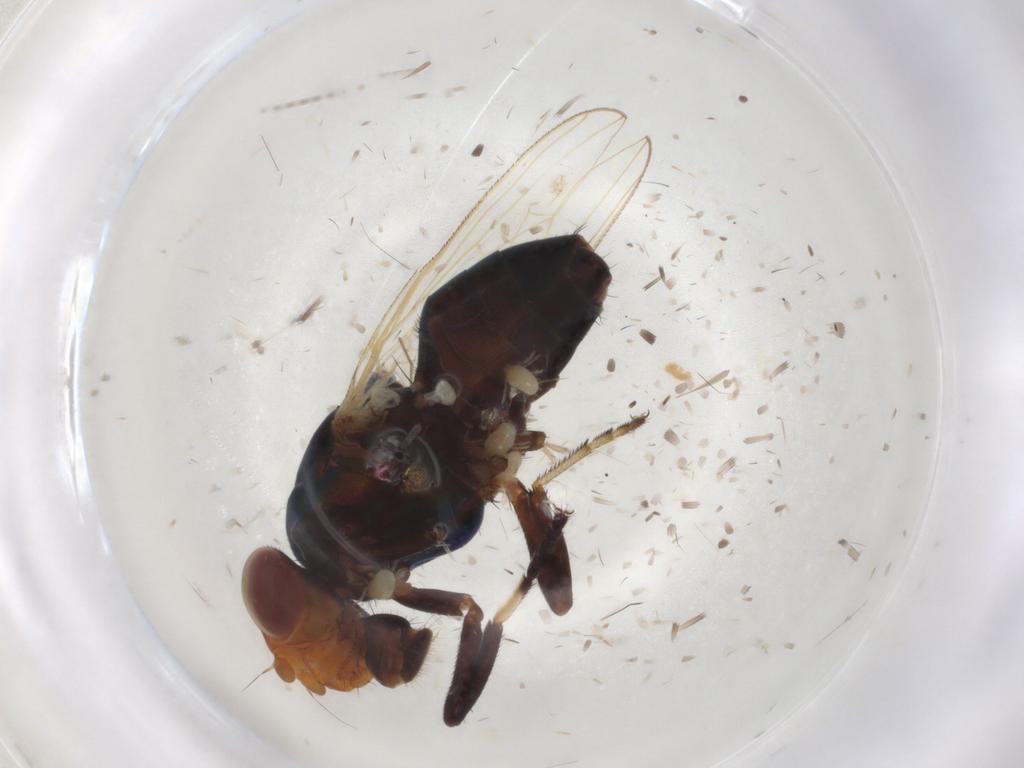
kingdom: Animalia
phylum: Arthropoda
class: Insecta
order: Diptera
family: Ulidiidae
